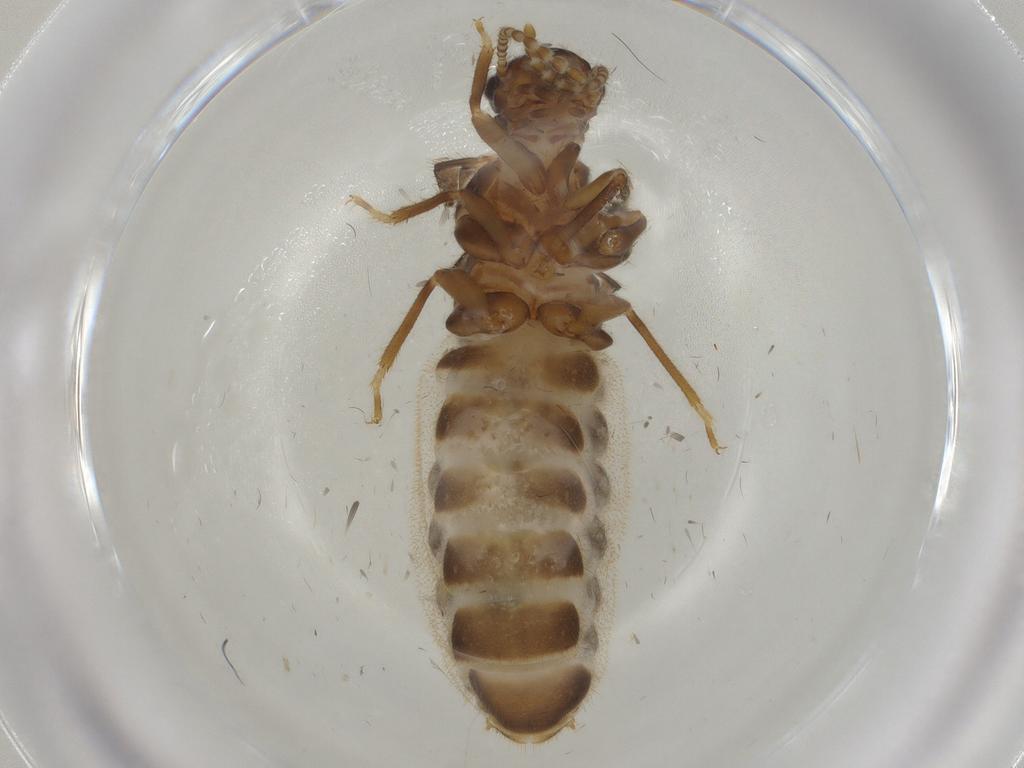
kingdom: Animalia
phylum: Arthropoda
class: Insecta
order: Blattodea
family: Termitidae
